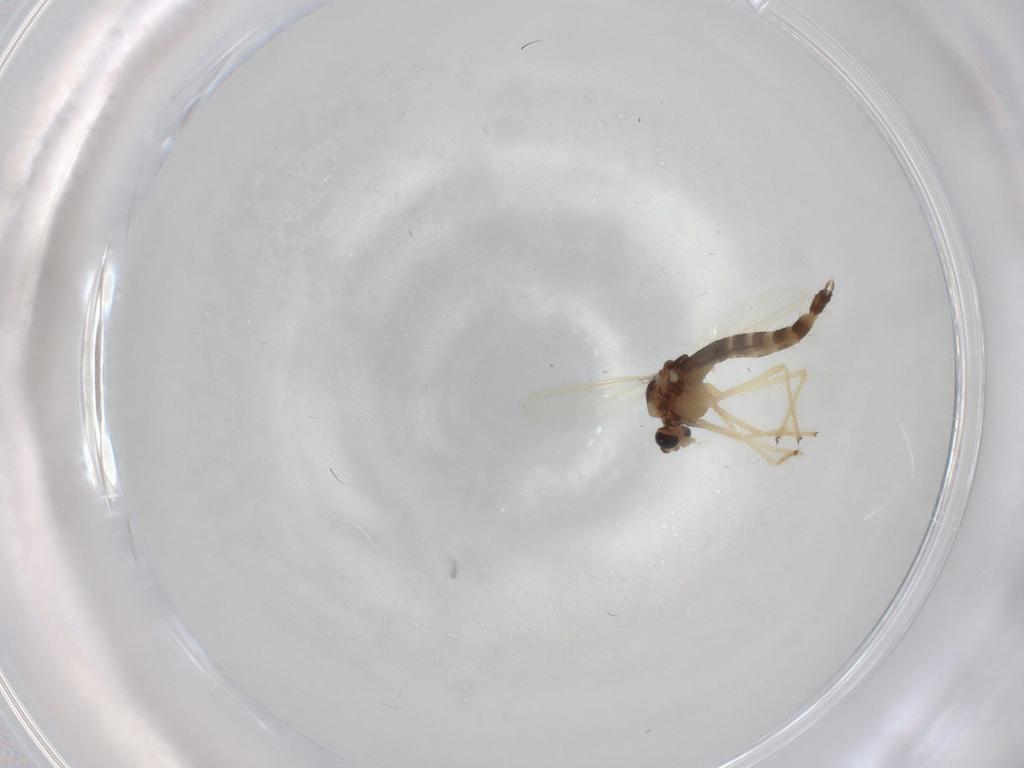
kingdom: Animalia
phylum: Arthropoda
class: Insecta
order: Diptera
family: Chironomidae
